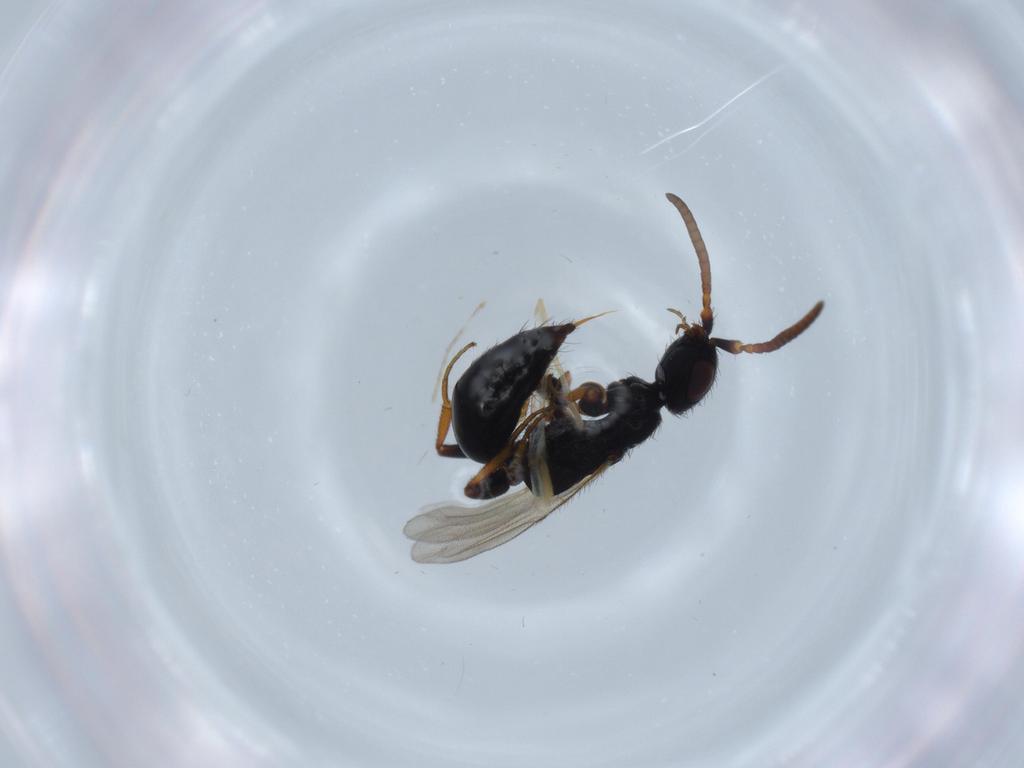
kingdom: Animalia
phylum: Arthropoda
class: Insecta
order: Hymenoptera
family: Bethylidae
